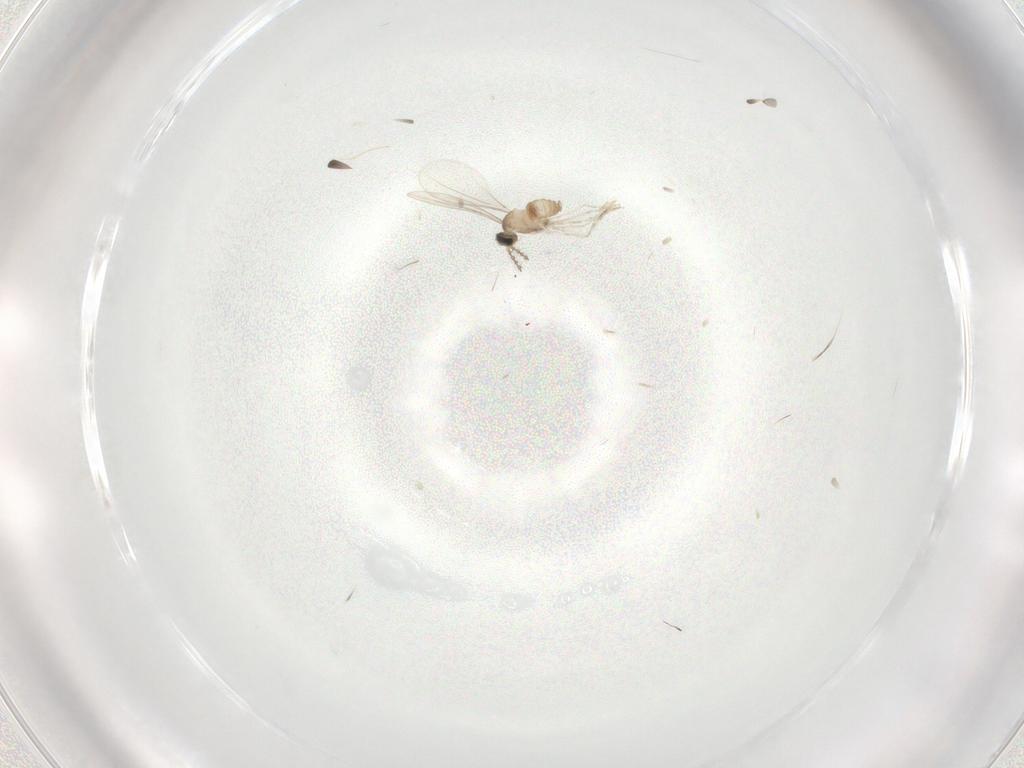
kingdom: Animalia
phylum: Arthropoda
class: Insecta
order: Diptera
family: Cecidomyiidae
